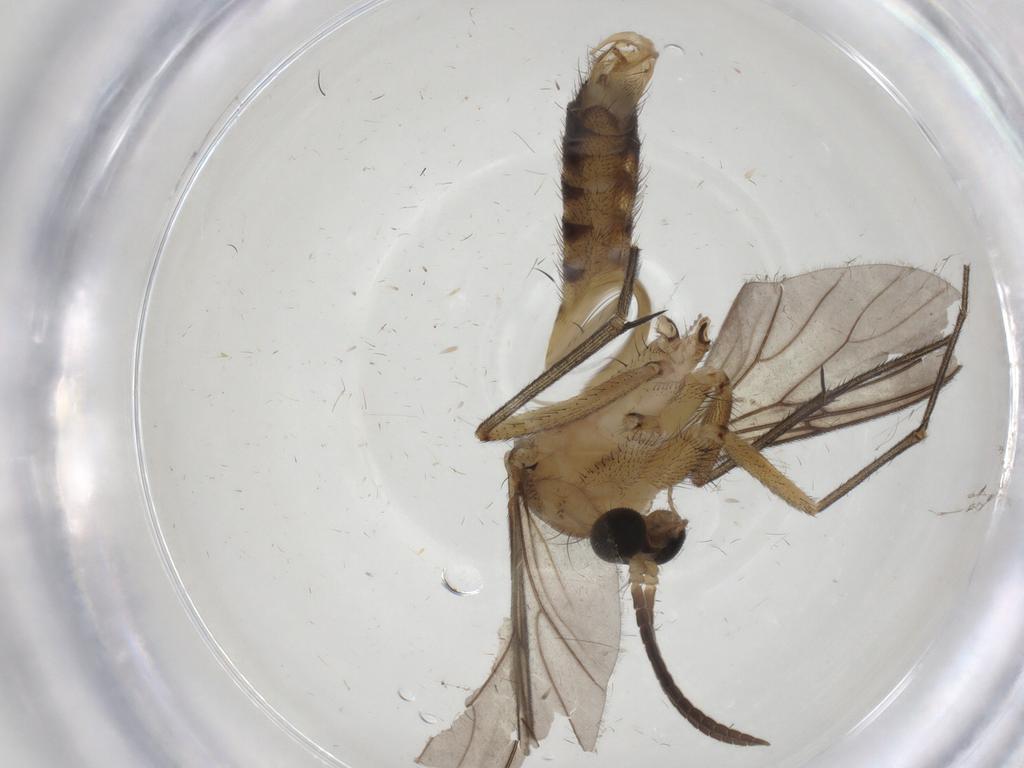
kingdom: Animalia
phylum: Arthropoda
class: Insecta
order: Diptera
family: Mycetophilidae
